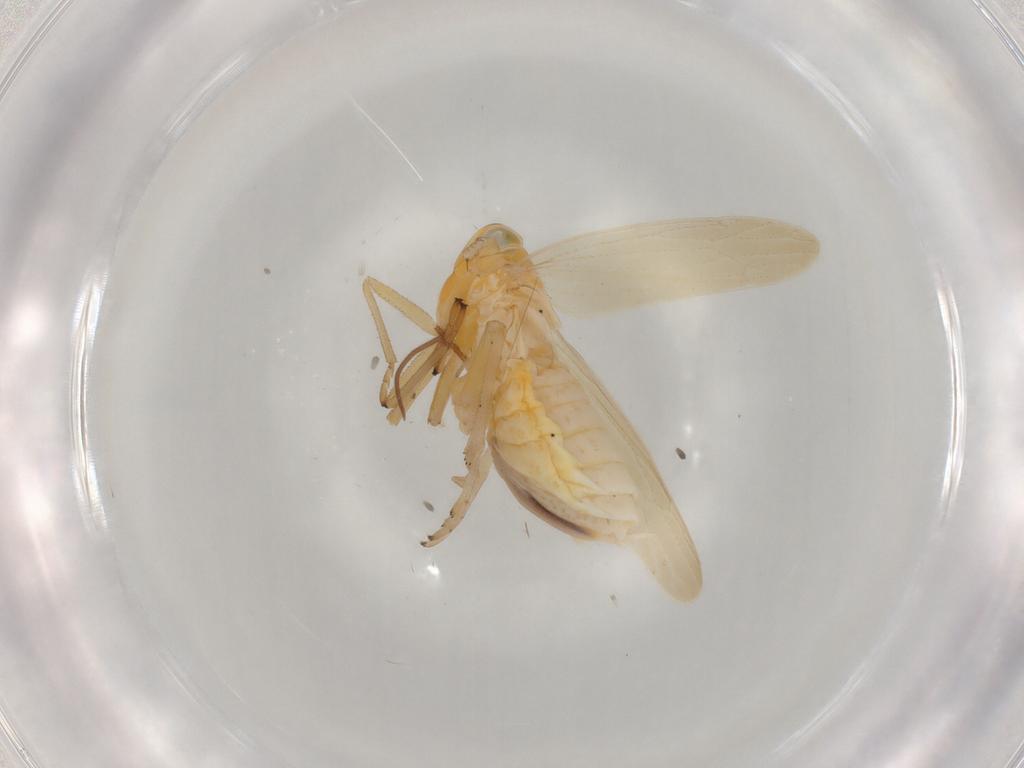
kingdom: Animalia
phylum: Arthropoda
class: Insecta
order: Hemiptera
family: Delphacidae
